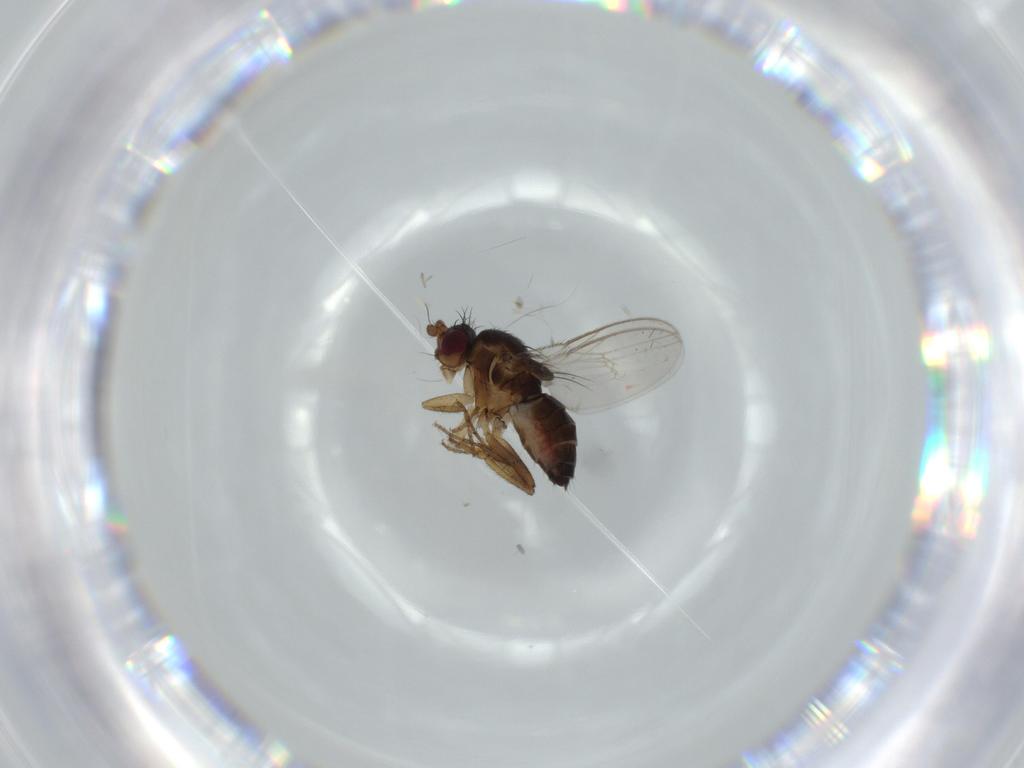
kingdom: Animalia
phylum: Arthropoda
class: Insecta
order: Diptera
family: Sphaeroceridae
